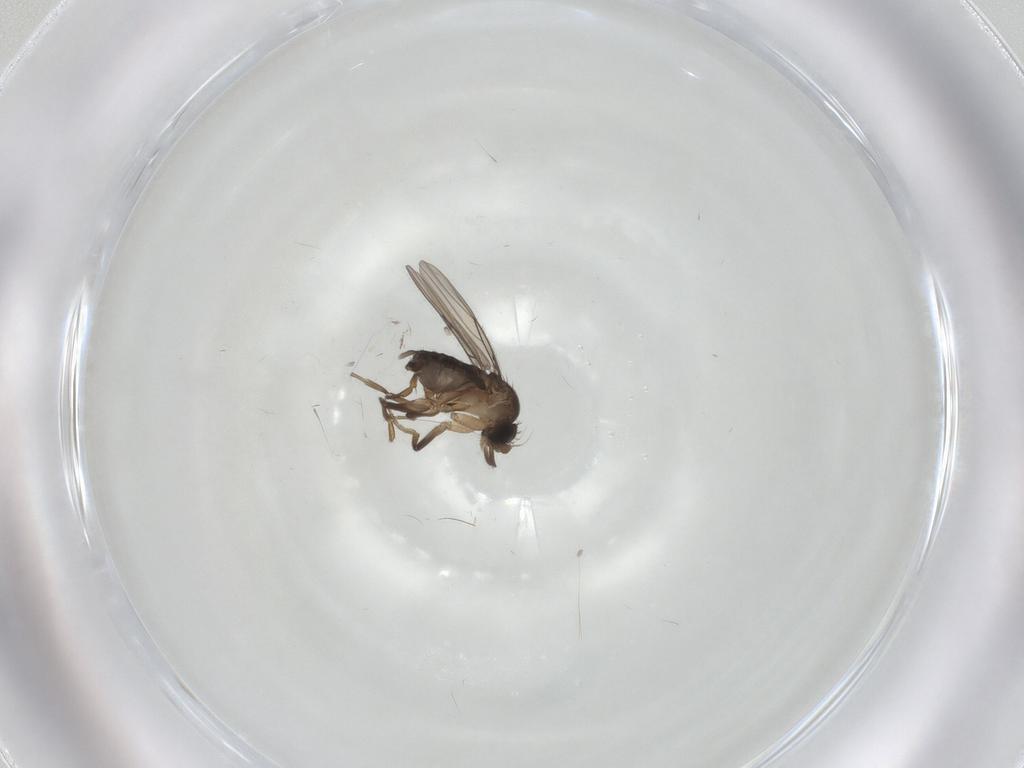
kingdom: Animalia
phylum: Arthropoda
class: Insecta
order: Diptera
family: Phoridae
